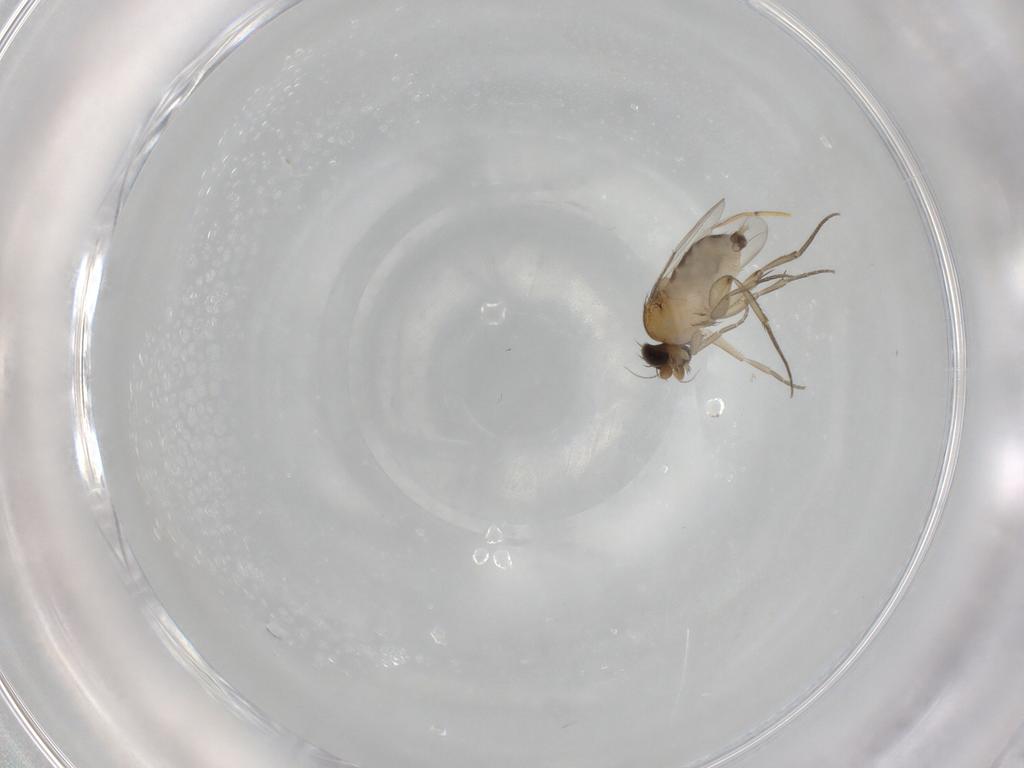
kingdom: Animalia
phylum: Arthropoda
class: Insecta
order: Diptera
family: Phoridae
